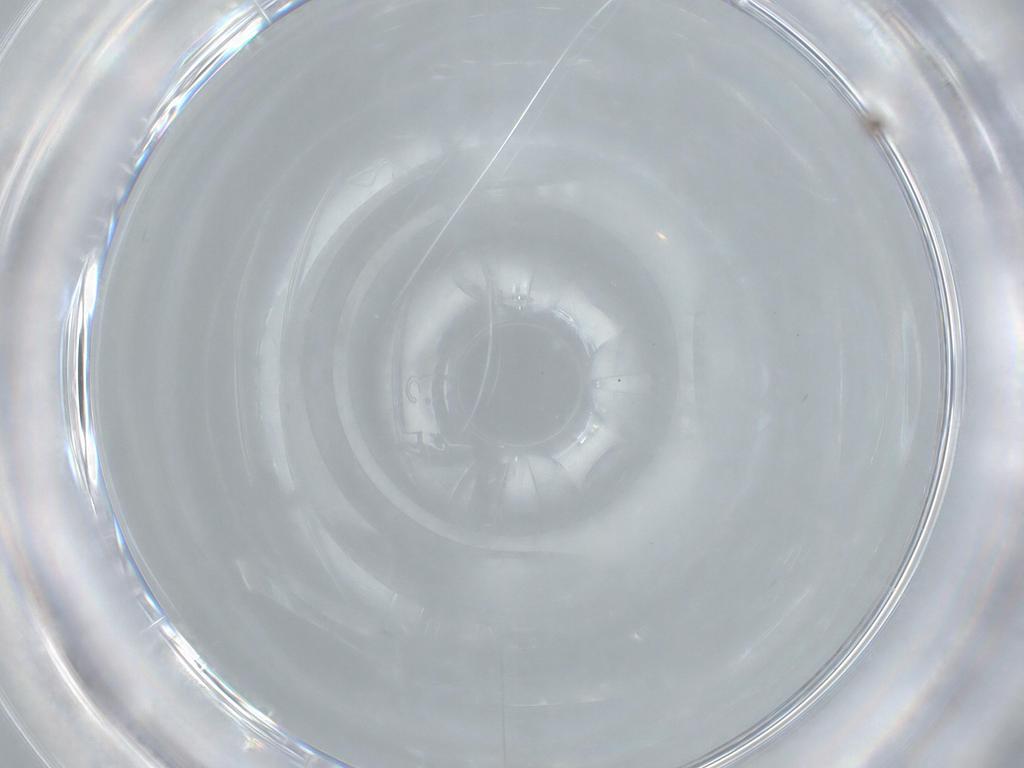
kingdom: Animalia
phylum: Arthropoda
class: Insecta
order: Hymenoptera
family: Trichogrammatidae
